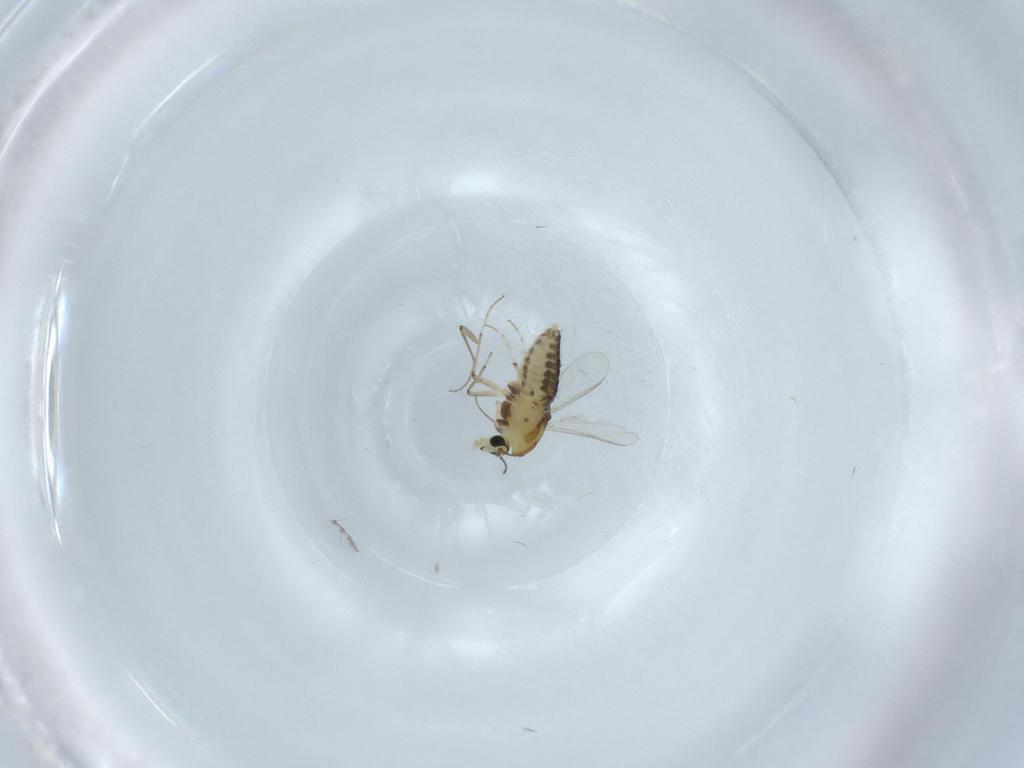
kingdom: Animalia
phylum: Arthropoda
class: Insecta
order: Diptera
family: Chironomidae
